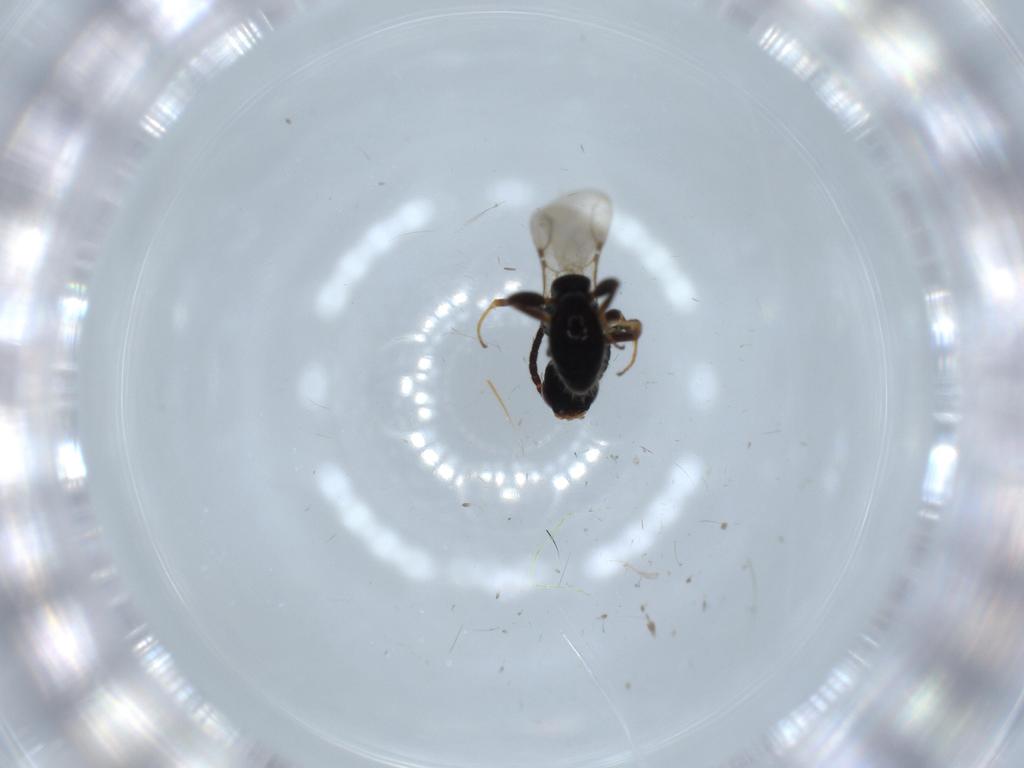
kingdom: Animalia
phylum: Arthropoda
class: Insecta
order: Hymenoptera
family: Bethylidae
